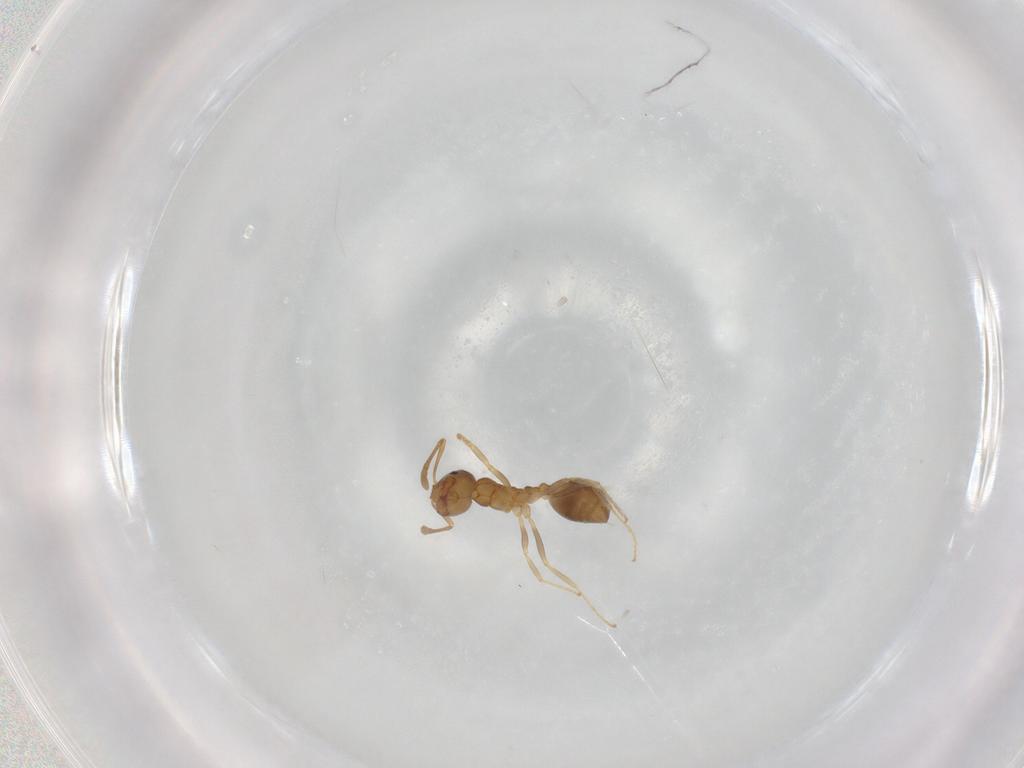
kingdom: Animalia
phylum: Arthropoda
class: Insecta
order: Hymenoptera
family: Formicidae
